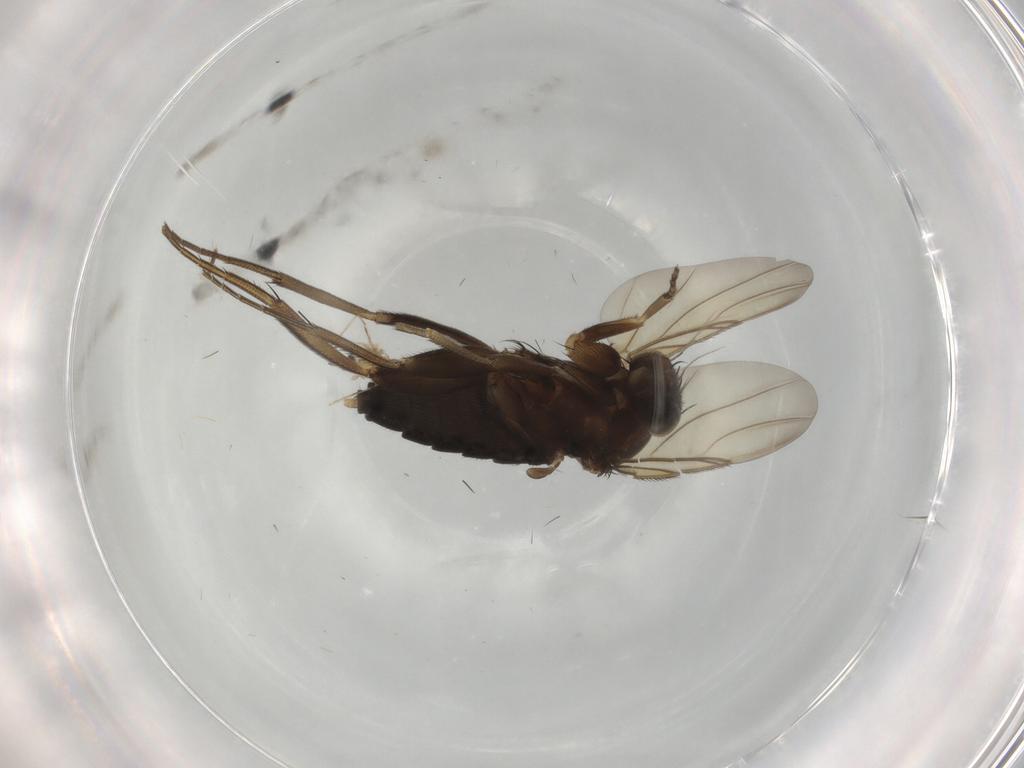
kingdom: Animalia
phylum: Arthropoda
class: Insecta
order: Diptera
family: Phoridae
